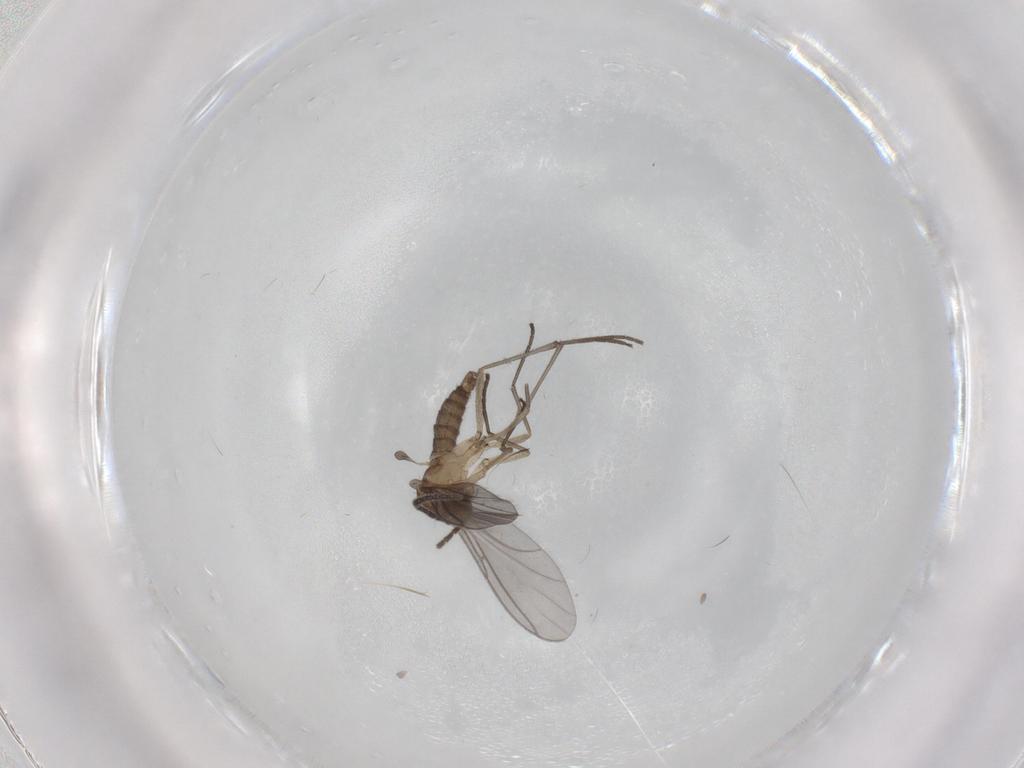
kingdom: Animalia
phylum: Arthropoda
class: Insecta
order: Diptera
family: Sciaridae
